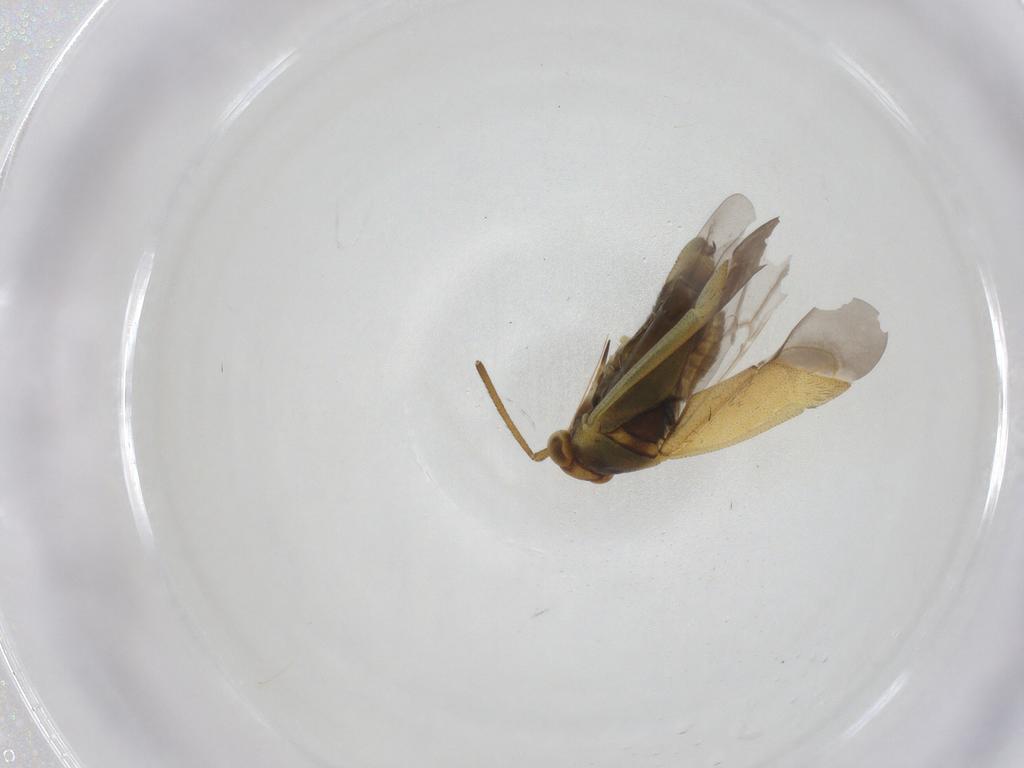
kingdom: Animalia
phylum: Arthropoda
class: Insecta
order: Hemiptera
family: Miridae
